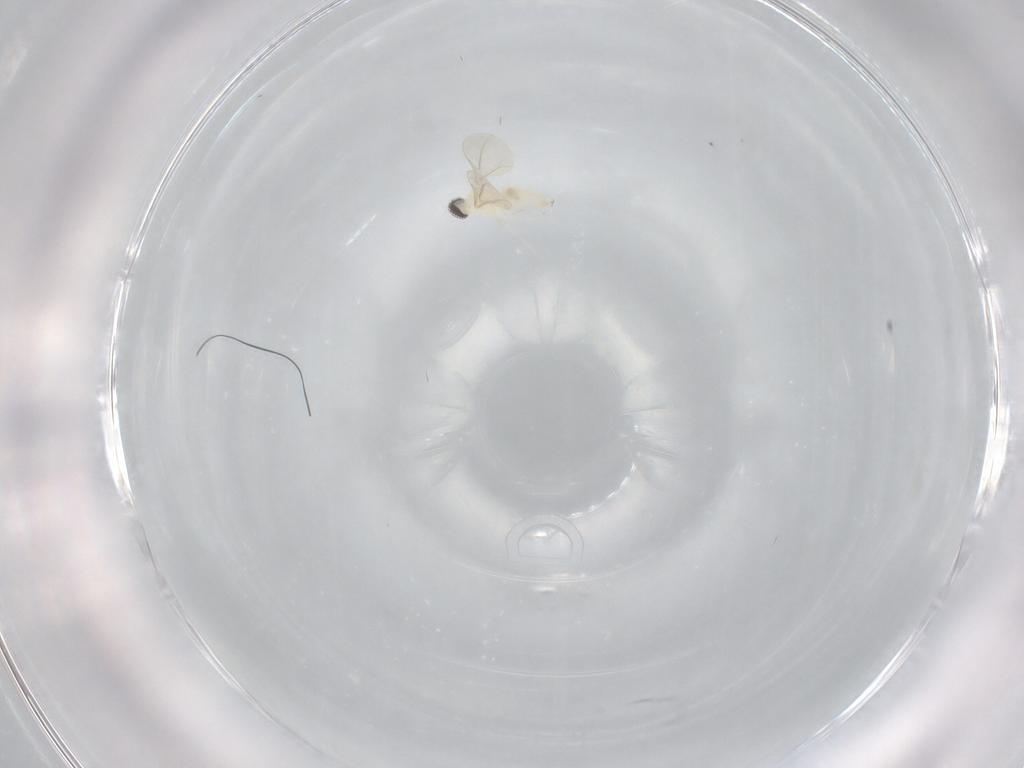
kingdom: Animalia
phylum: Arthropoda
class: Insecta
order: Diptera
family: Cecidomyiidae
